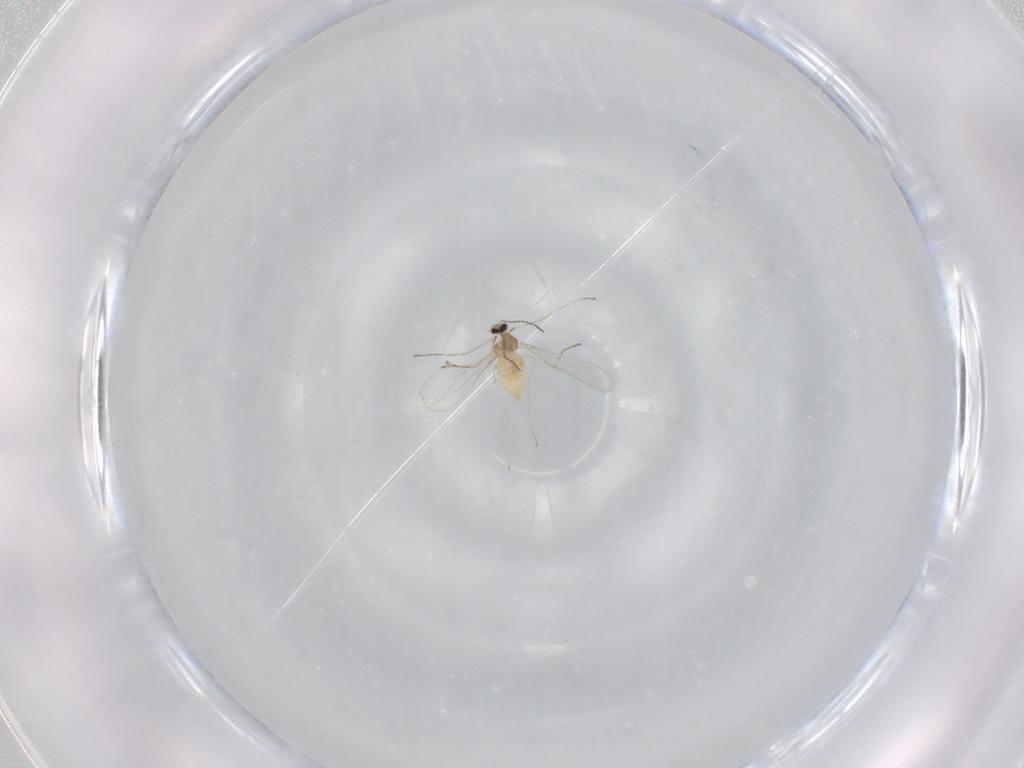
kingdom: Animalia
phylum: Arthropoda
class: Insecta
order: Diptera
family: Cecidomyiidae
